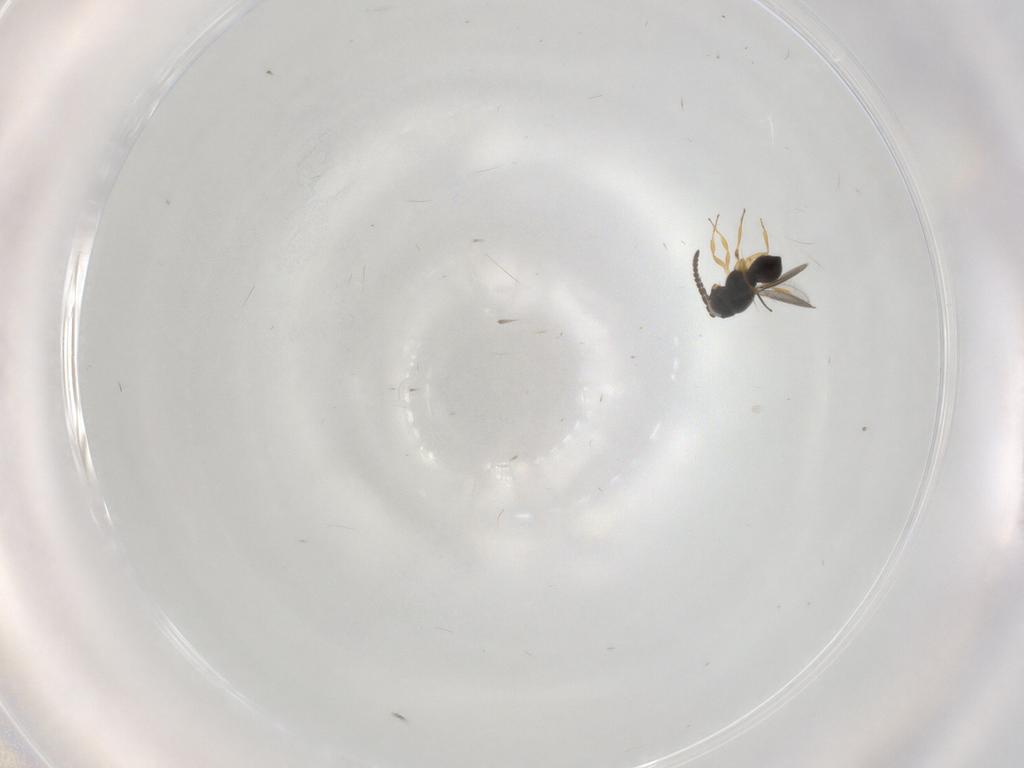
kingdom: Animalia
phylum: Arthropoda
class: Insecta
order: Hymenoptera
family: Scelionidae
